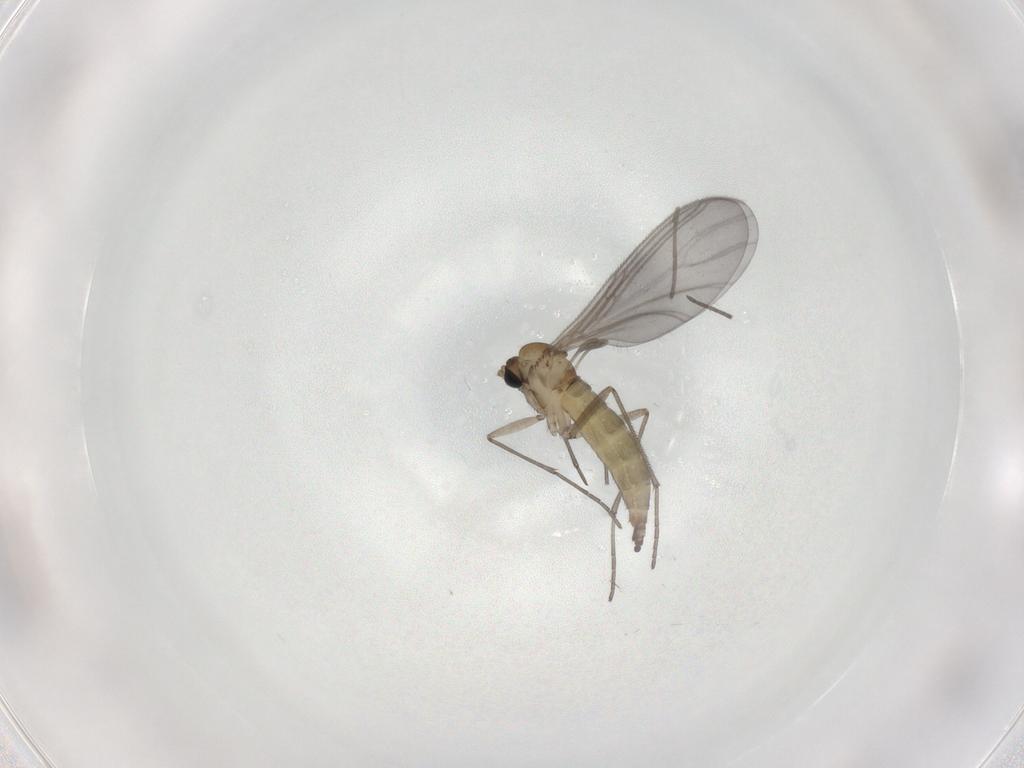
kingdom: Animalia
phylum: Arthropoda
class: Insecta
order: Diptera
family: Sciaridae
